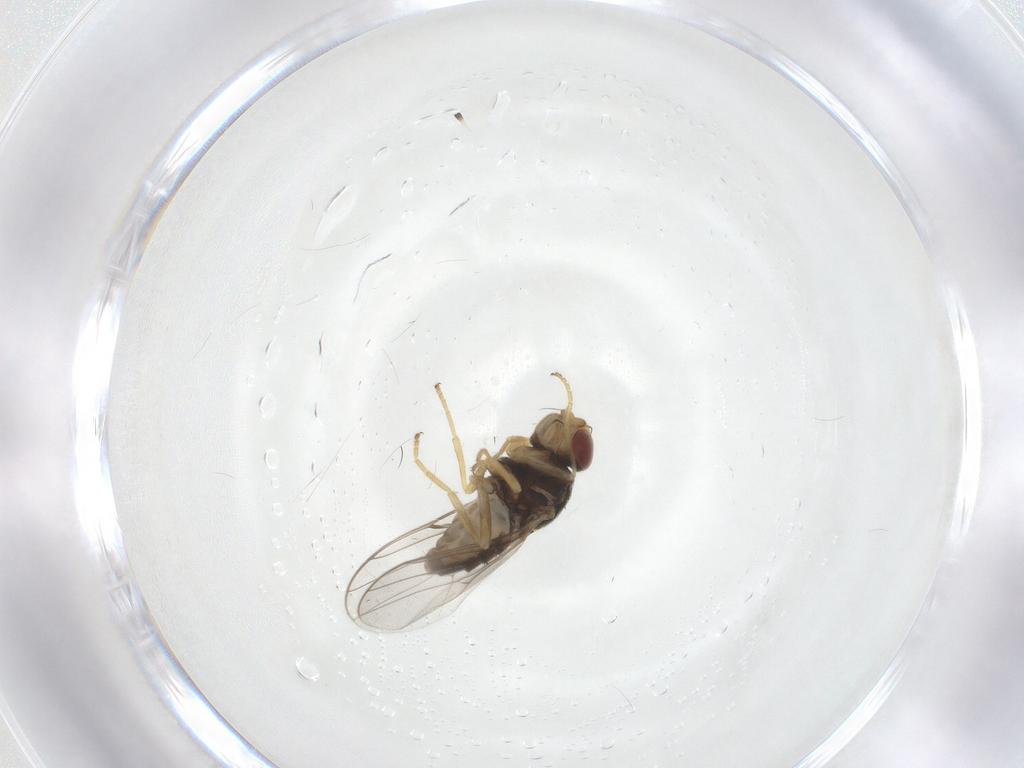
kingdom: Animalia
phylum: Arthropoda
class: Insecta
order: Diptera
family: Chloropidae
